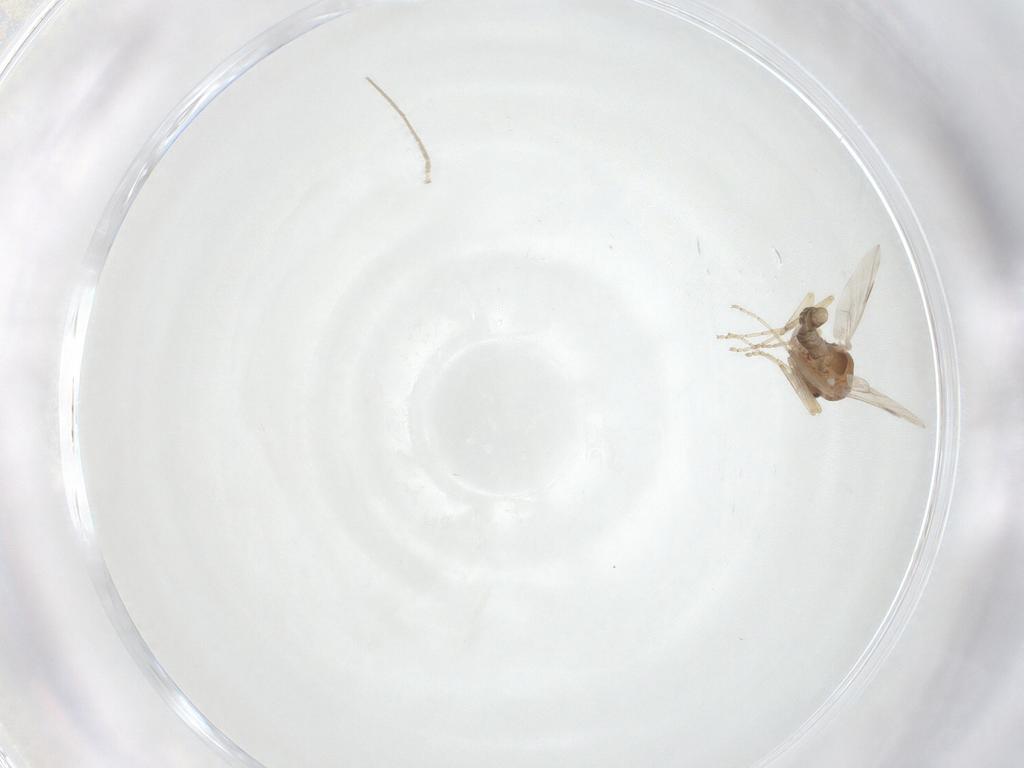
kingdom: Animalia
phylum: Arthropoda
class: Insecta
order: Diptera
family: Ceratopogonidae
